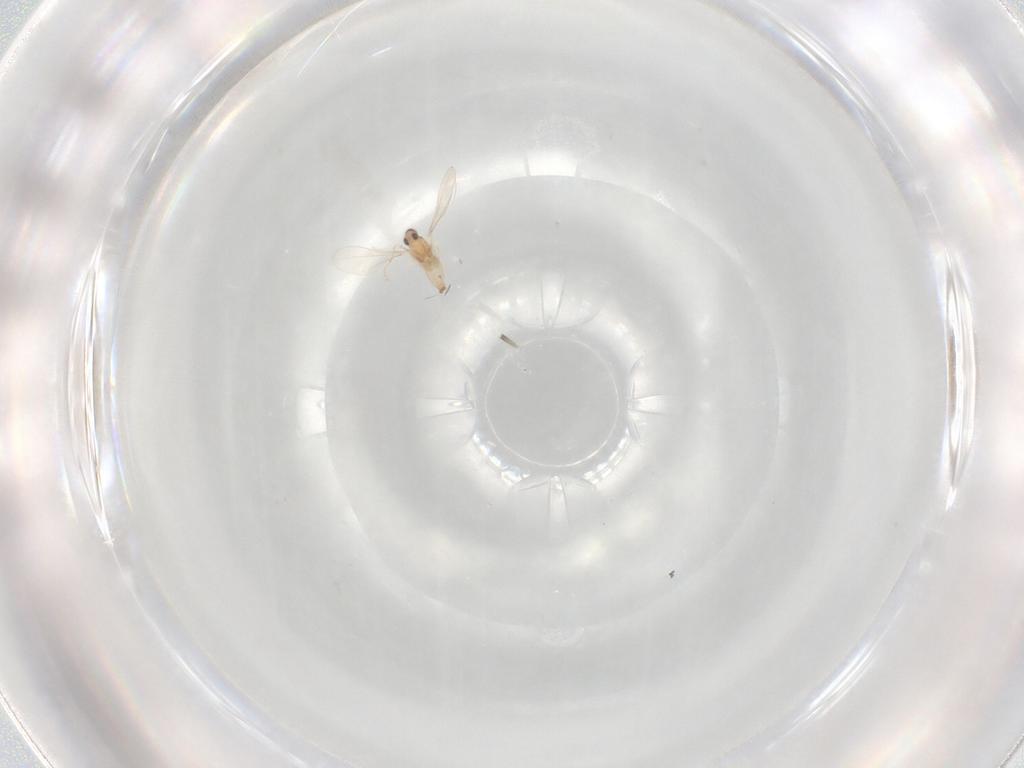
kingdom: Animalia
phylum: Arthropoda
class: Insecta
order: Diptera
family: Cecidomyiidae
